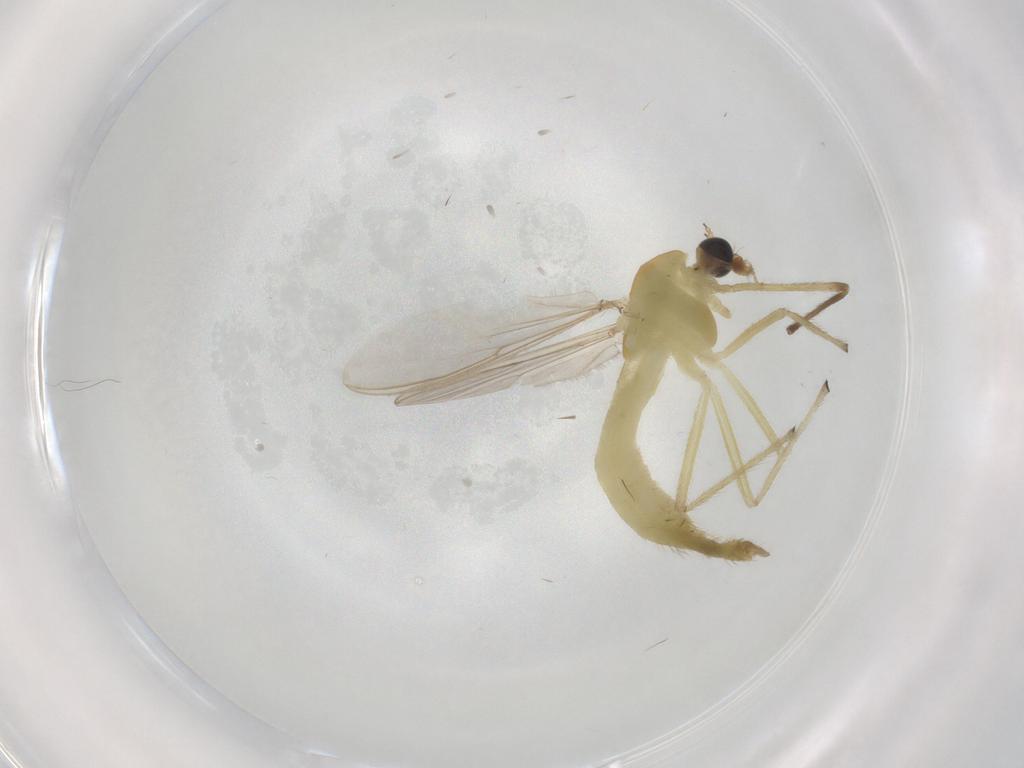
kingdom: Animalia
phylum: Arthropoda
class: Insecta
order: Diptera
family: Chironomidae
